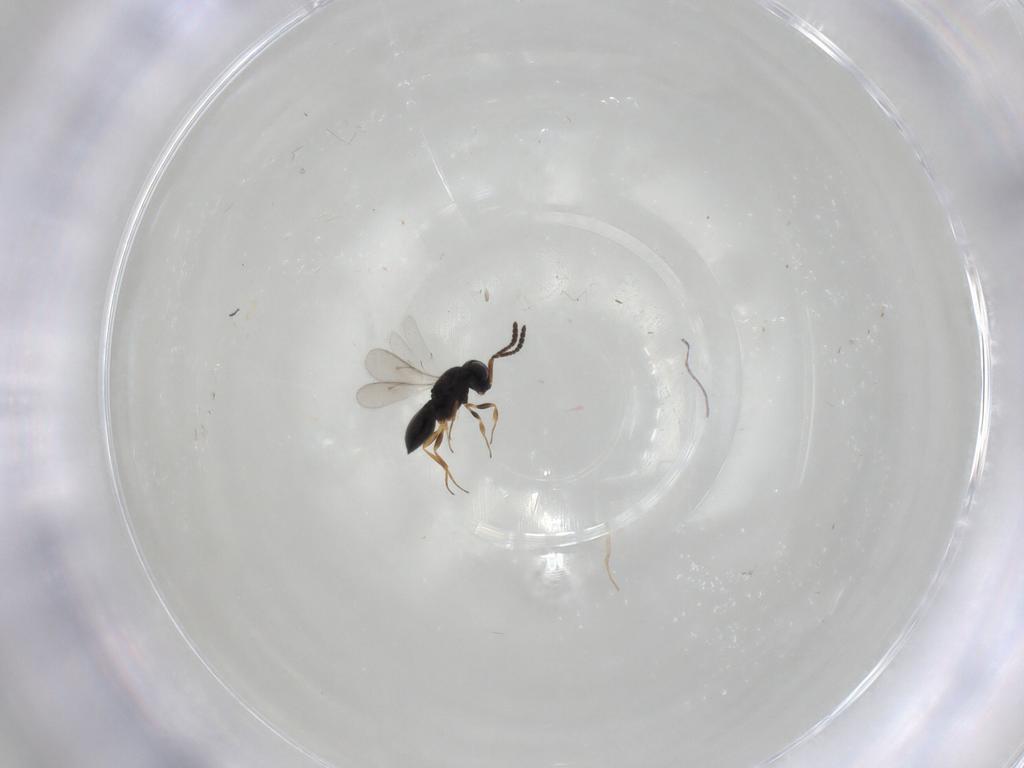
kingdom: Animalia
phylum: Arthropoda
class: Insecta
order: Hymenoptera
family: Scelionidae
